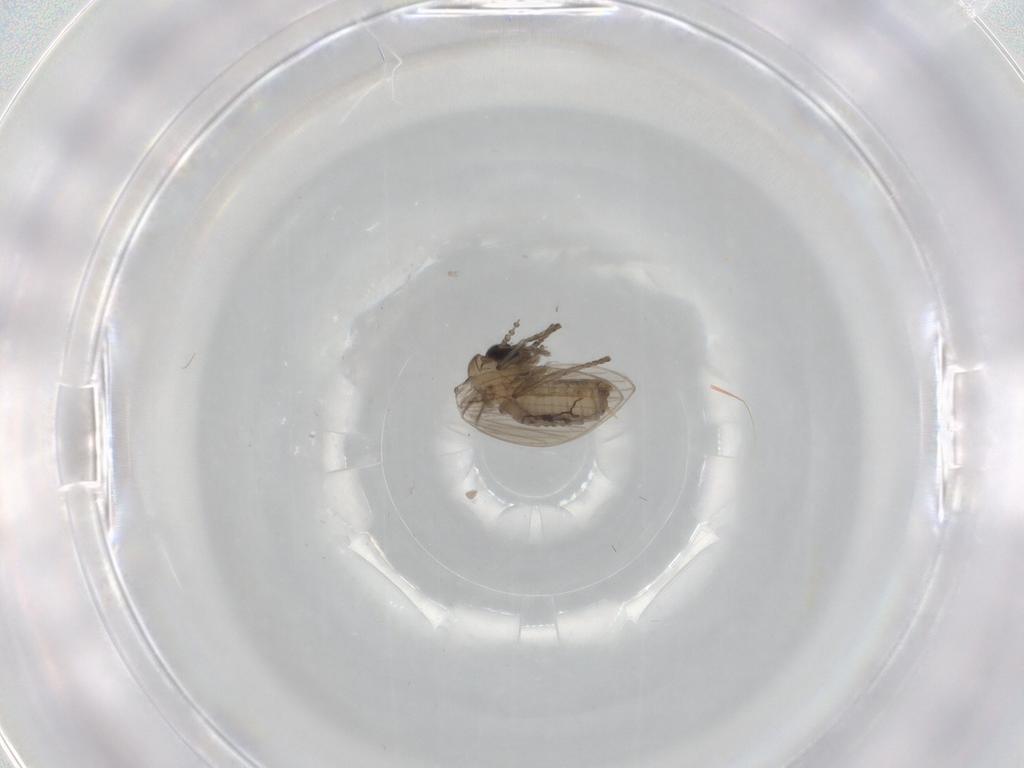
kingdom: Animalia
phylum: Arthropoda
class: Insecta
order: Diptera
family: Psychodidae
